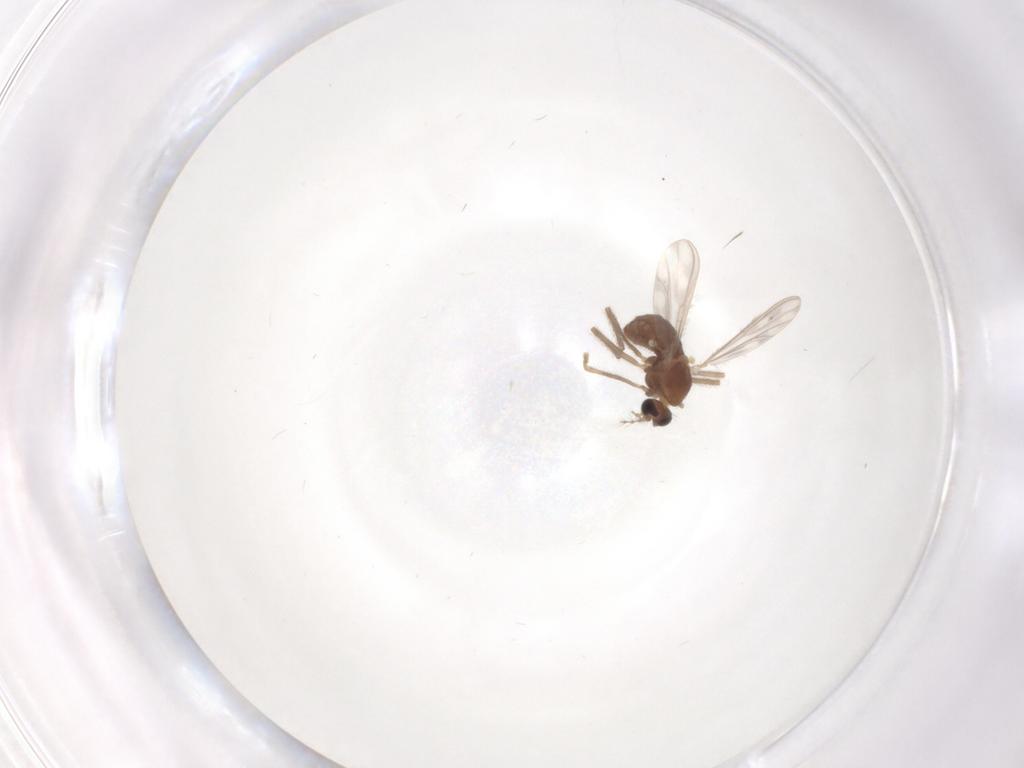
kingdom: Animalia
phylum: Arthropoda
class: Insecta
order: Diptera
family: Chironomidae
